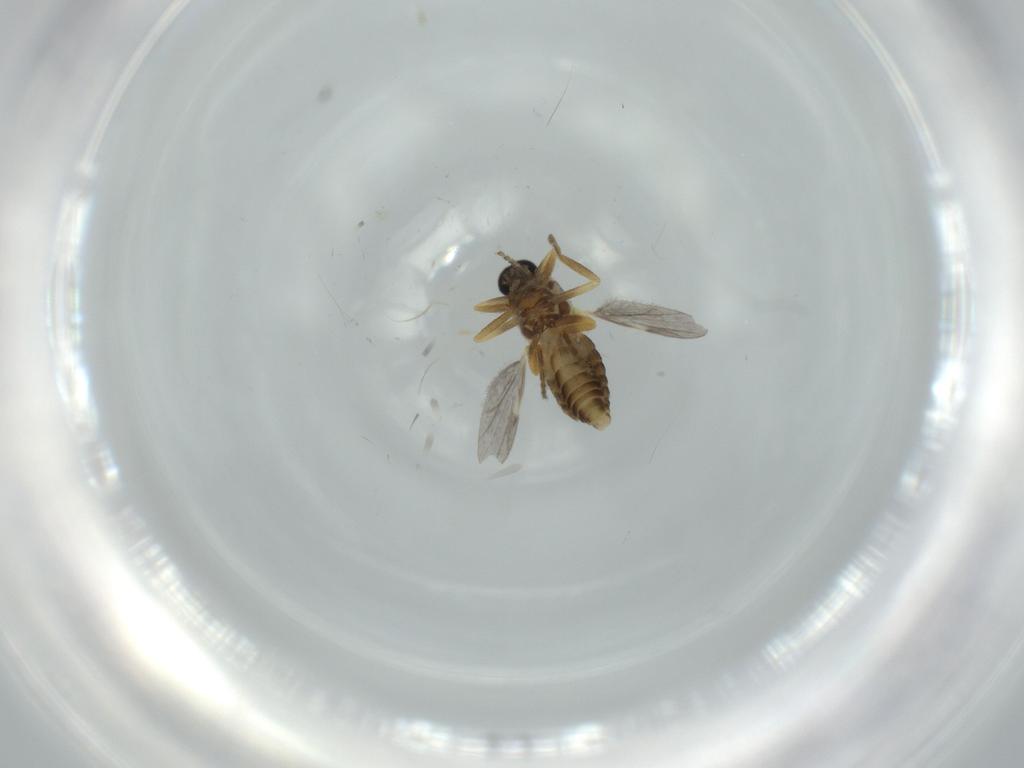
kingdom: Animalia
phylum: Arthropoda
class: Insecta
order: Diptera
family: Ceratopogonidae
